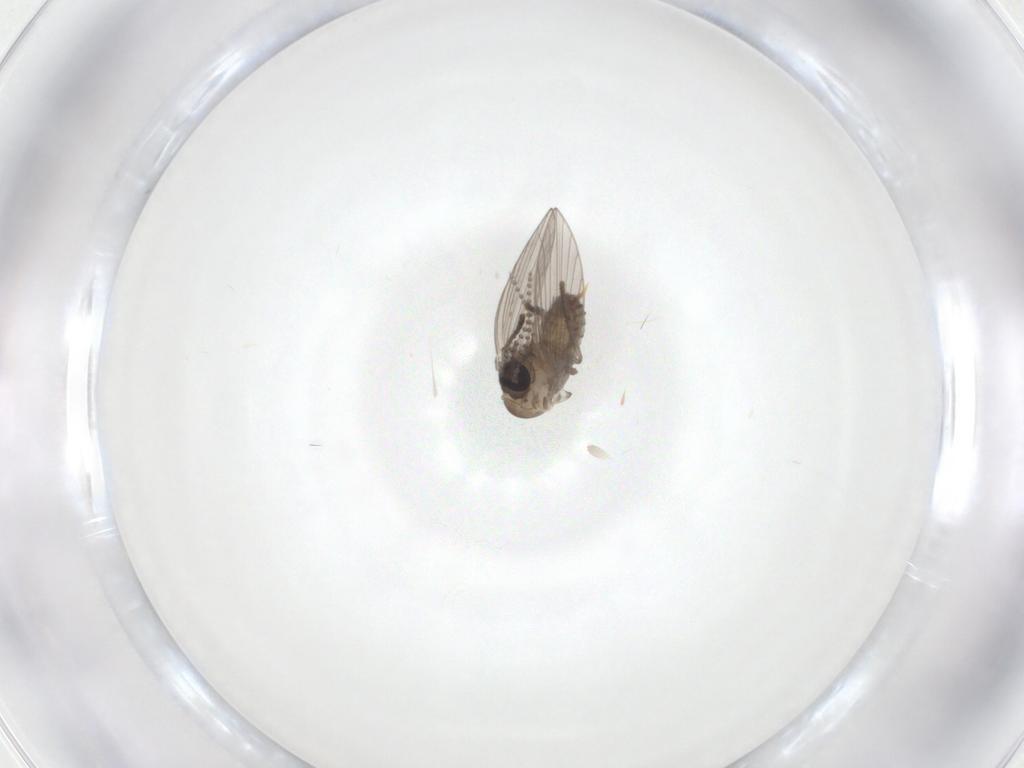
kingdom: Animalia
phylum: Arthropoda
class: Insecta
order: Diptera
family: Psychodidae
